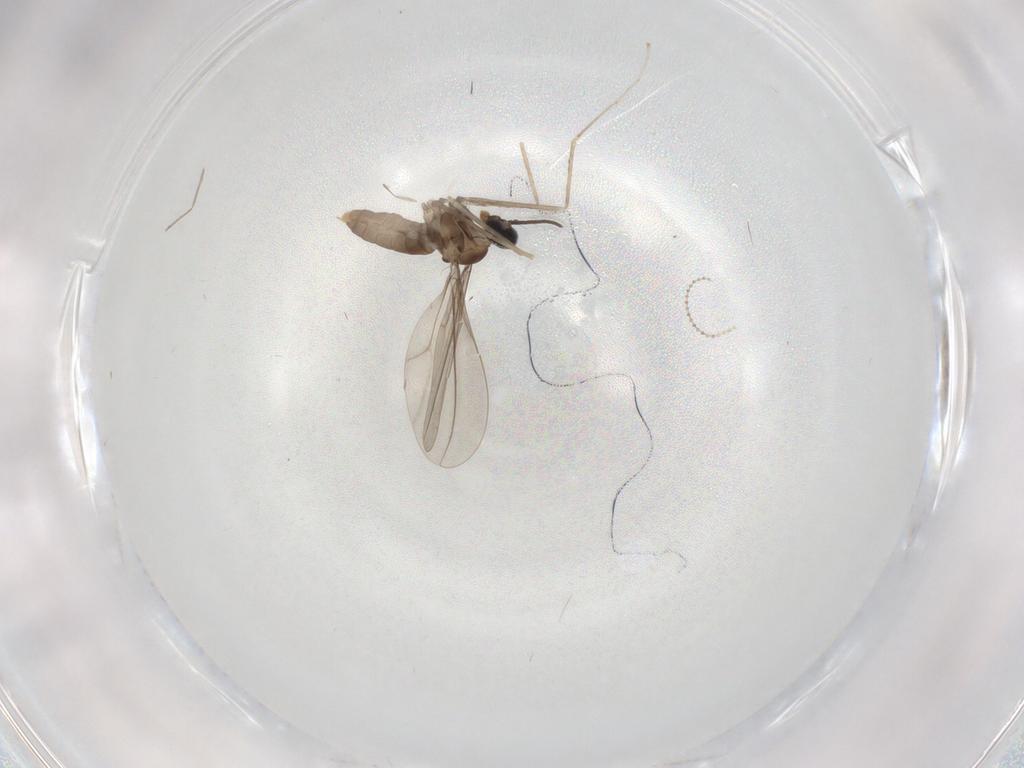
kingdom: Animalia
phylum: Arthropoda
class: Insecta
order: Diptera
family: Cecidomyiidae
